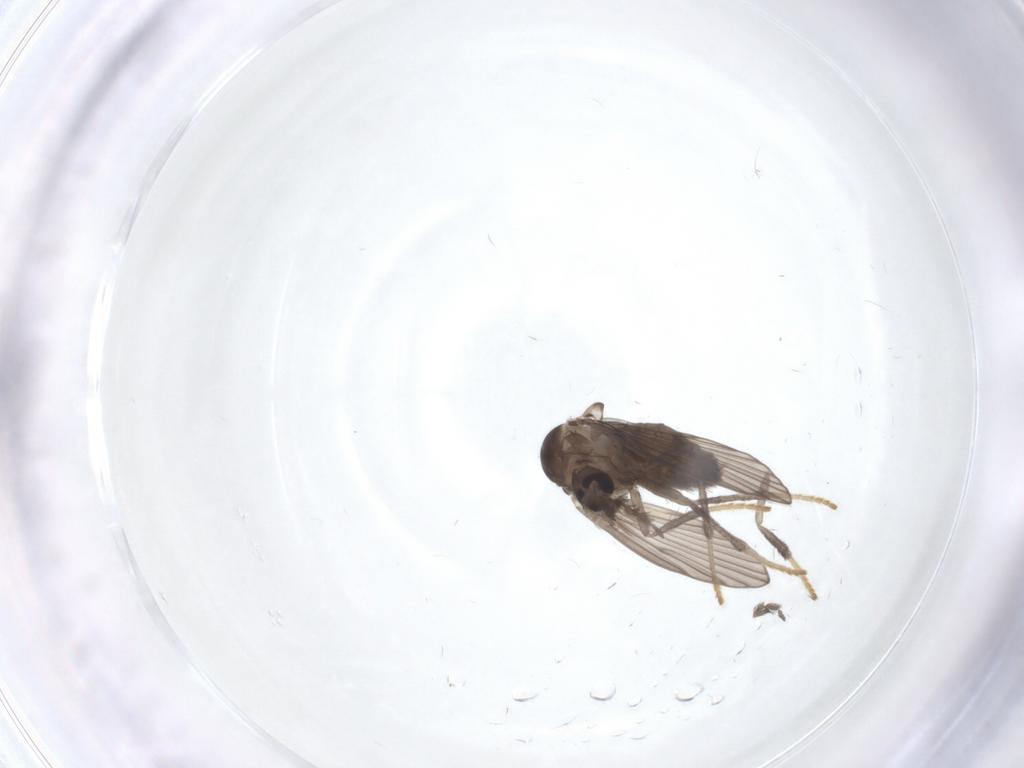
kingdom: Animalia
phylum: Arthropoda
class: Insecta
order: Diptera
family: Psychodidae
